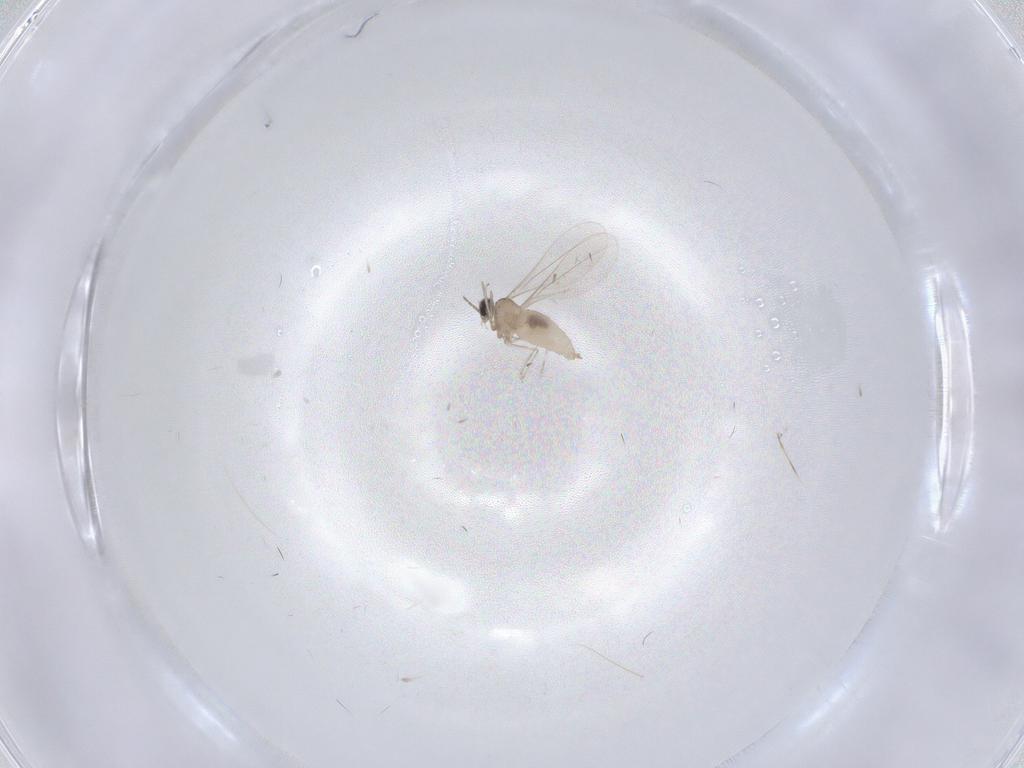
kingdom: Animalia
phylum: Arthropoda
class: Insecta
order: Diptera
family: Cecidomyiidae
